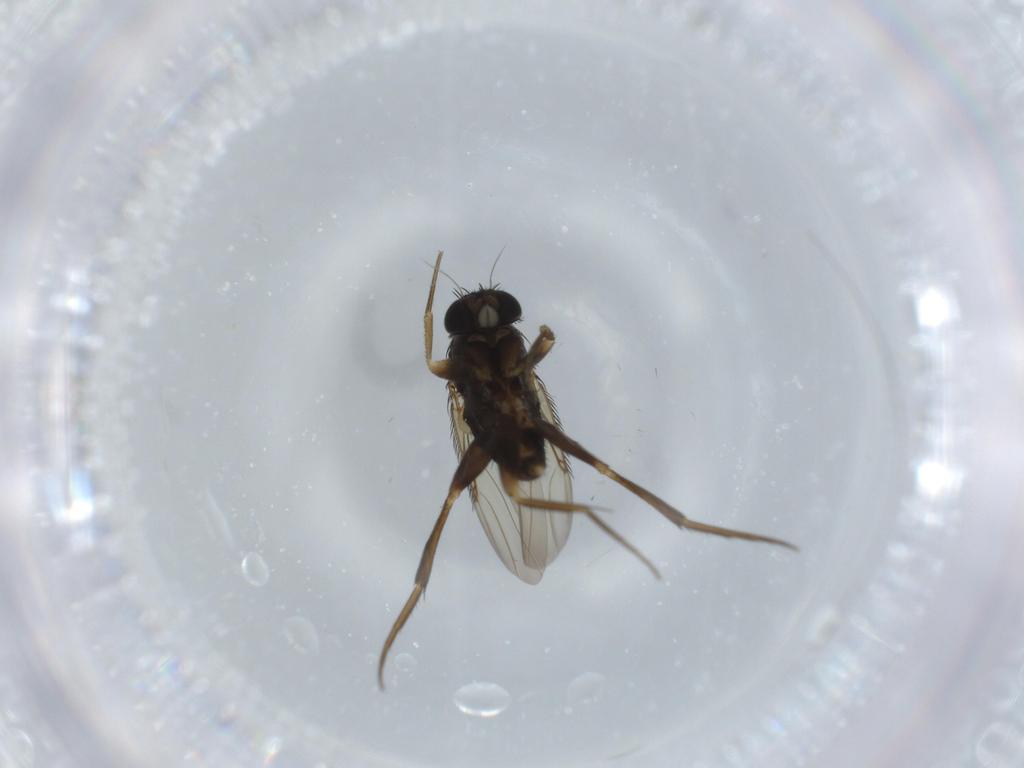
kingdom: Animalia
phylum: Arthropoda
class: Insecta
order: Diptera
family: Phoridae
